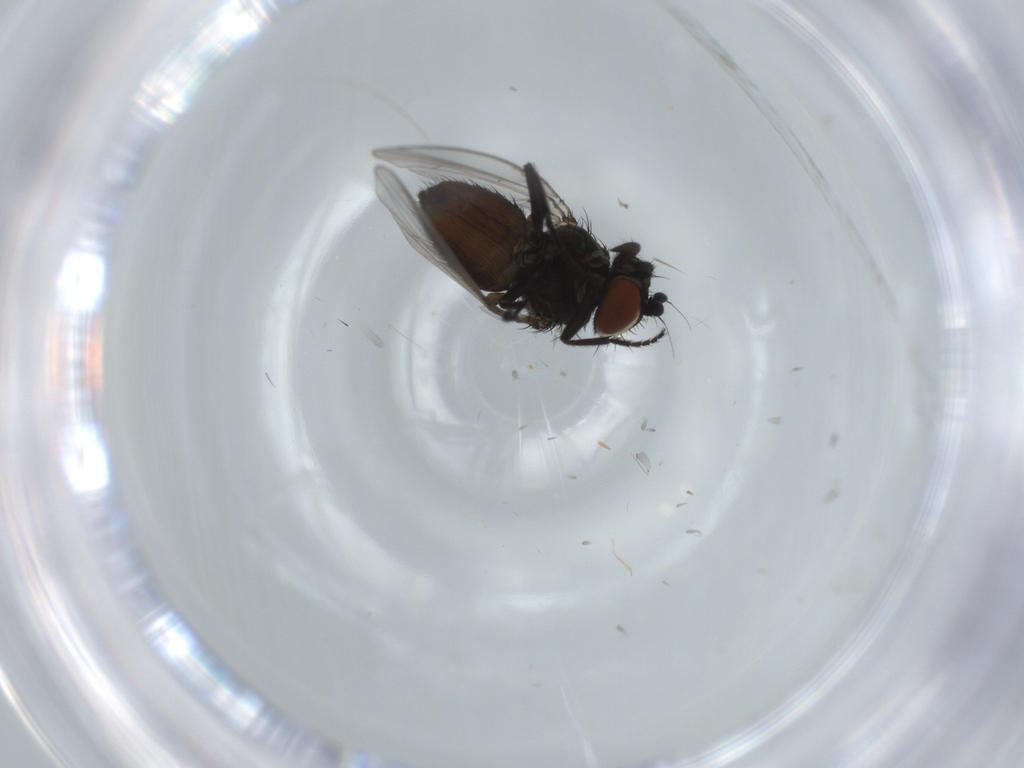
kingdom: Animalia
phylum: Arthropoda
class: Insecta
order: Diptera
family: Milichiidae
